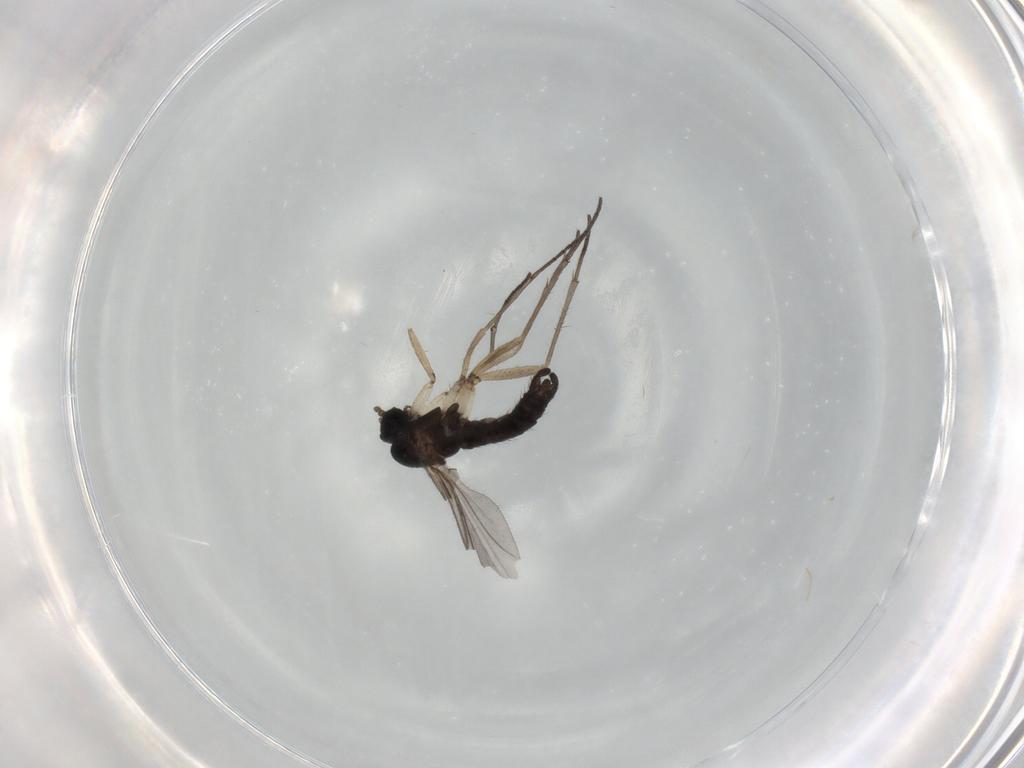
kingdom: Animalia
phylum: Arthropoda
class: Insecta
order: Diptera
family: Sciaridae
